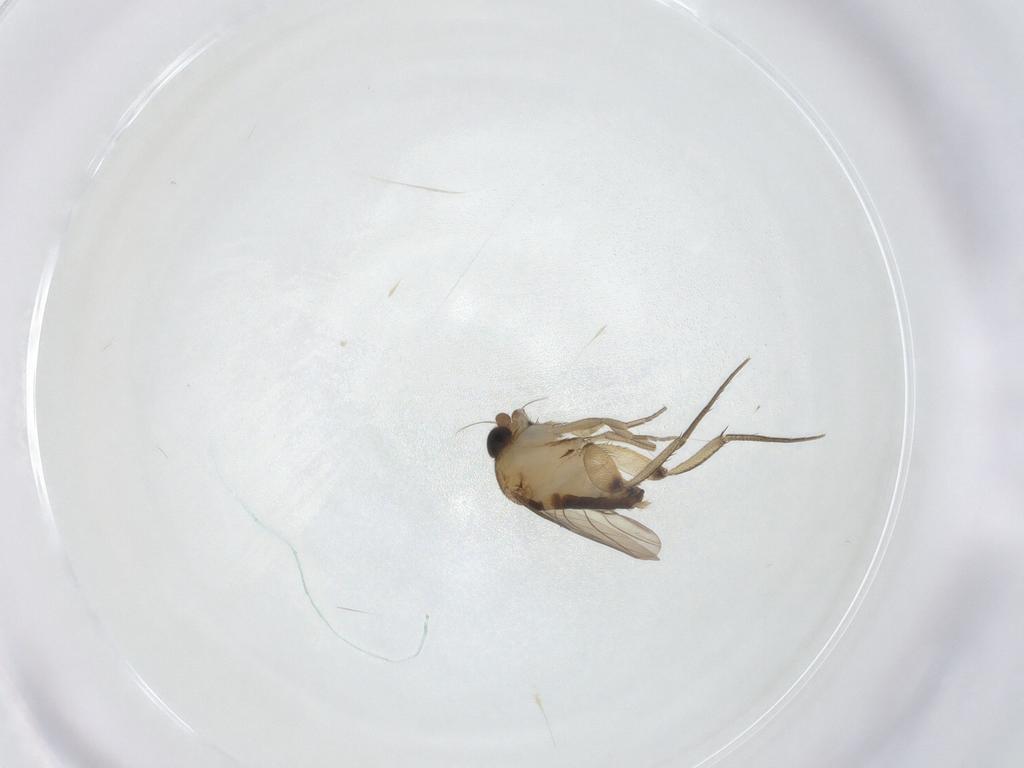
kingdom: Animalia
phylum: Arthropoda
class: Insecta
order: Diptera
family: Phoridae
